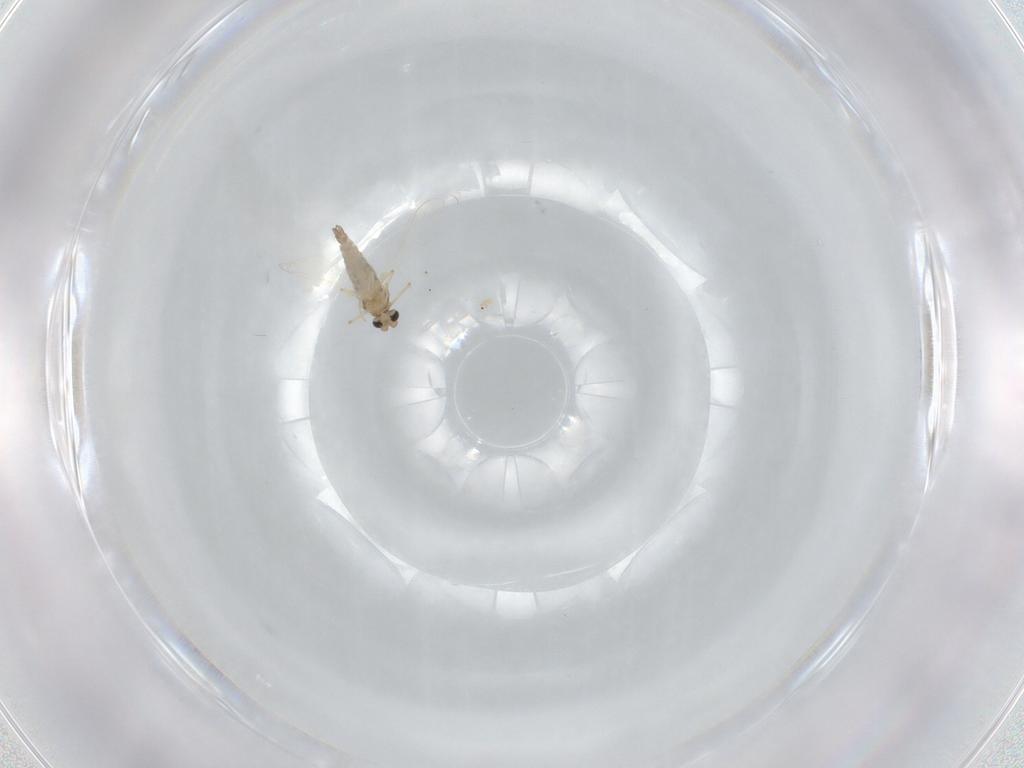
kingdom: Animalia
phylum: Arthropoda
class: Insecta
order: Diptera
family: Chironomidae
